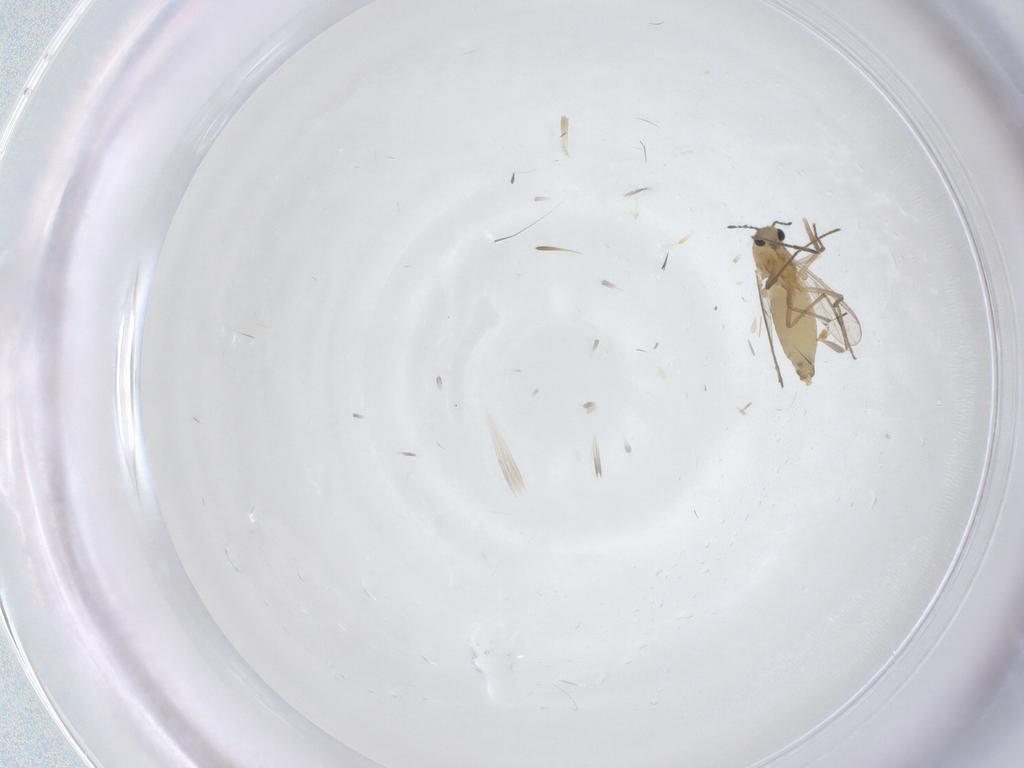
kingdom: Animalia
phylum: Arthropoda
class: Insecta
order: Diptera
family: Chironomidae
